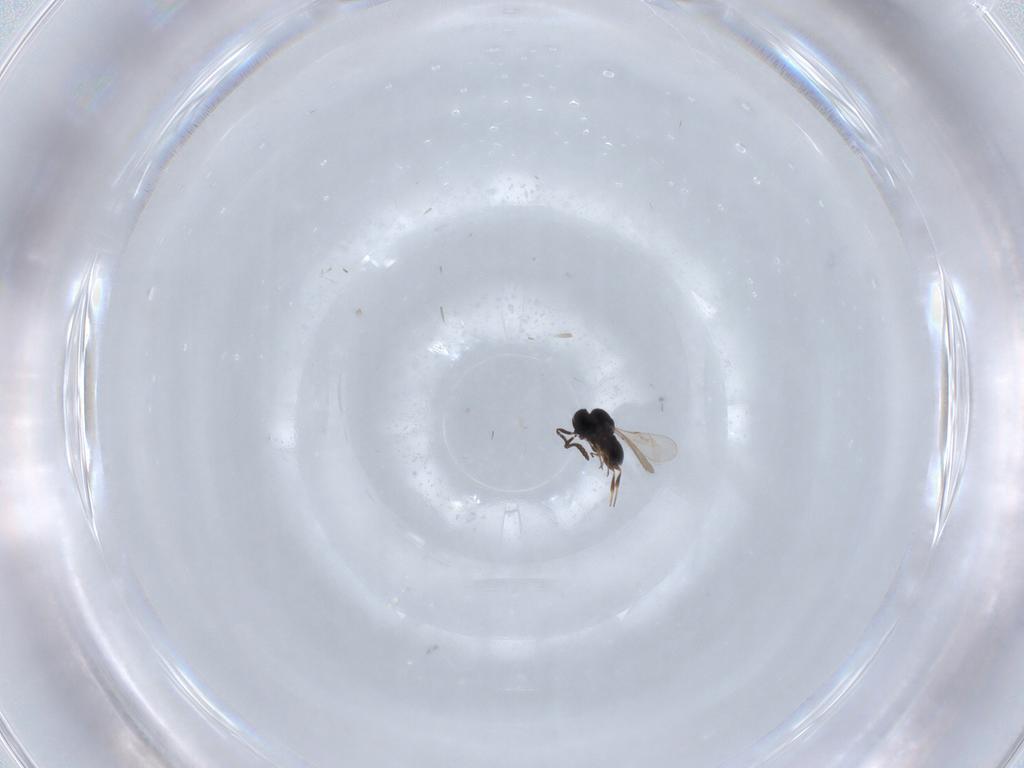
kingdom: Animalia
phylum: Arthropoda
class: Insecta
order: Hymenoptera
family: Scelionidae
